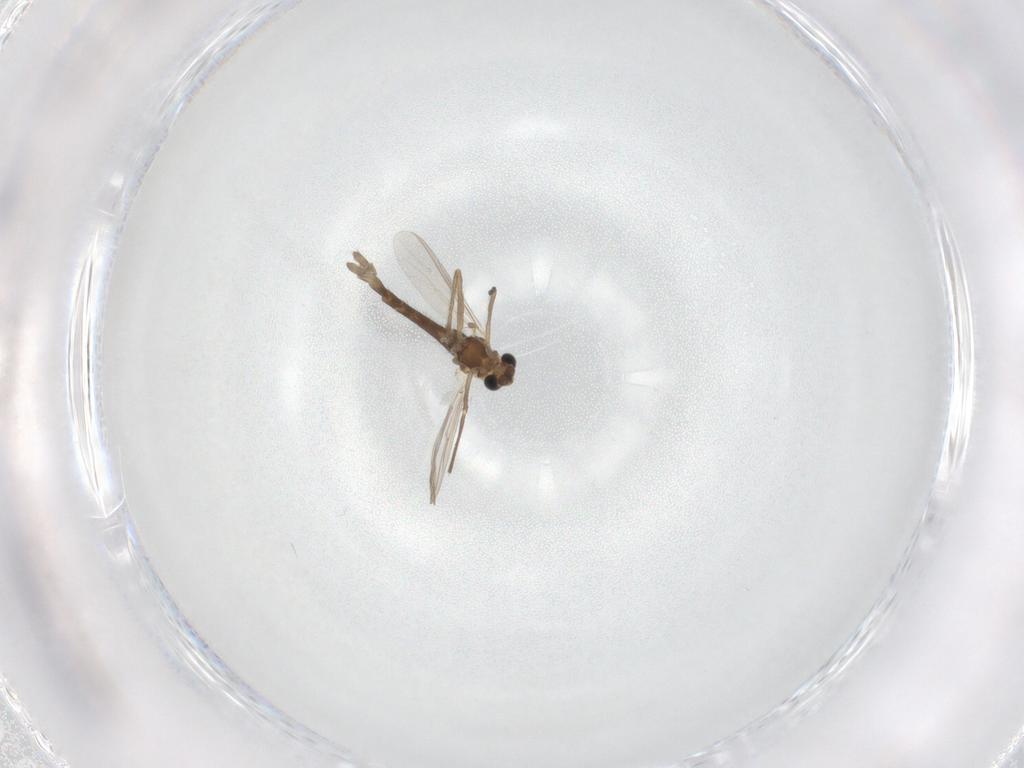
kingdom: Animalia
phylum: Arthropoda
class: Insecta
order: Diptera
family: Chironomidae
